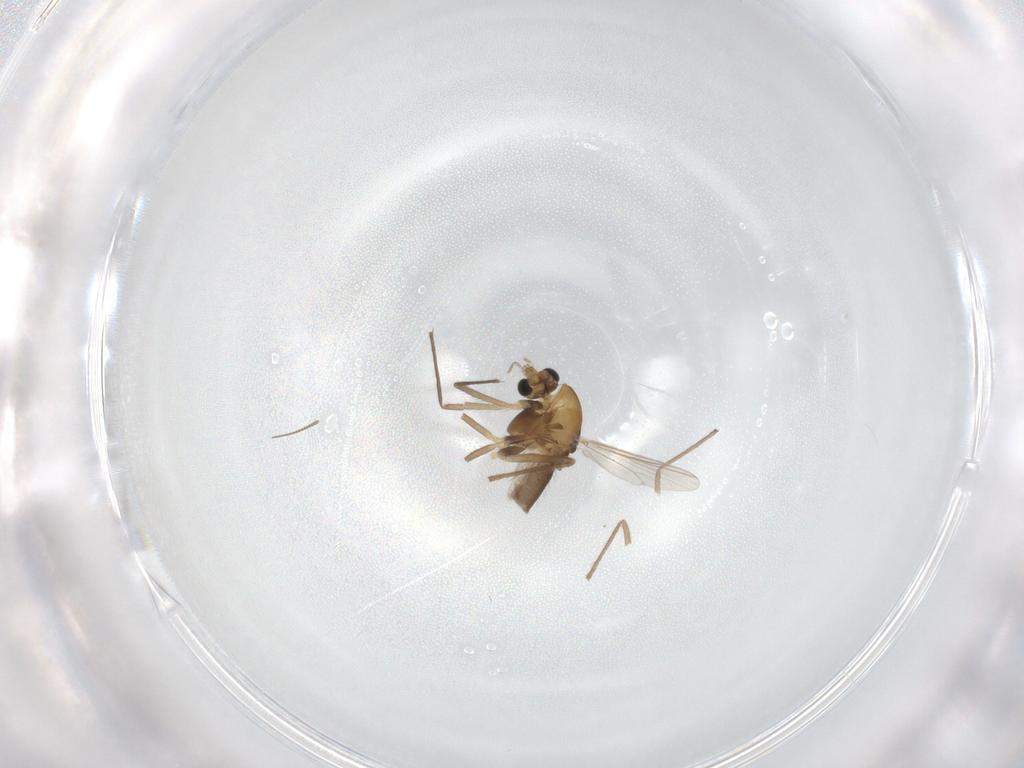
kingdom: Animalia
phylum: Arthropoda
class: Insecta
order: Diptera
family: Chironomidae
